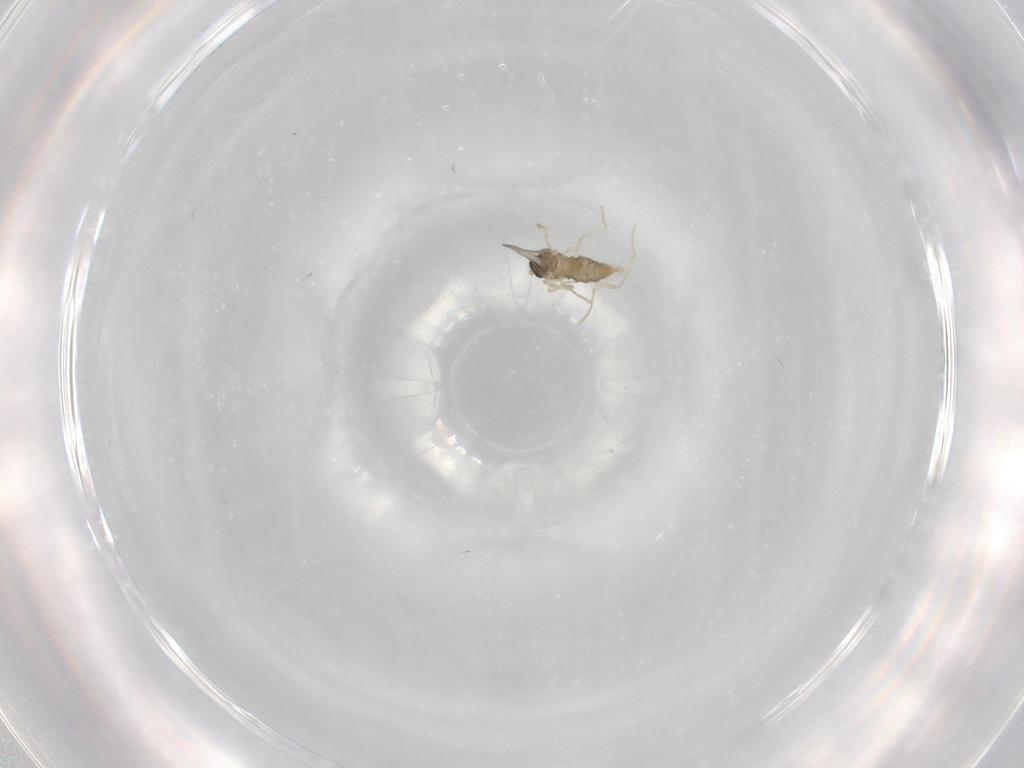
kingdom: Animalia
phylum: Arthropoda
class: Insecta
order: Diptera
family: Cecidomyiidae
